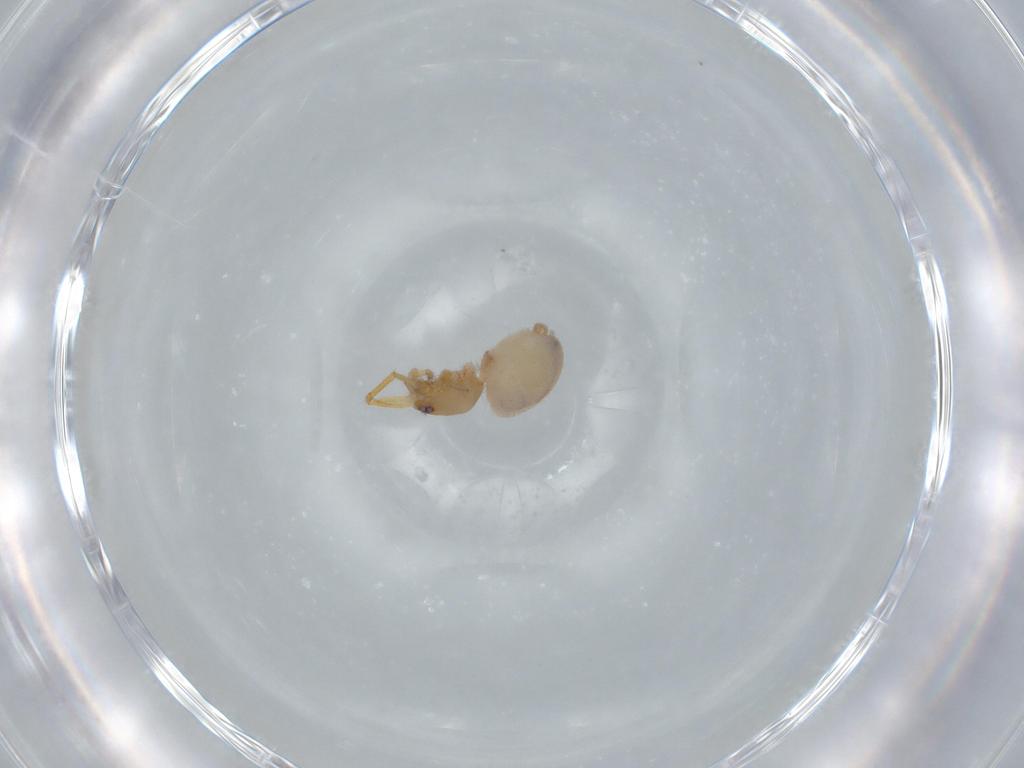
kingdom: Animalia
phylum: Arthropoda
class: Arachnida
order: Araneae
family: Oonopidae
